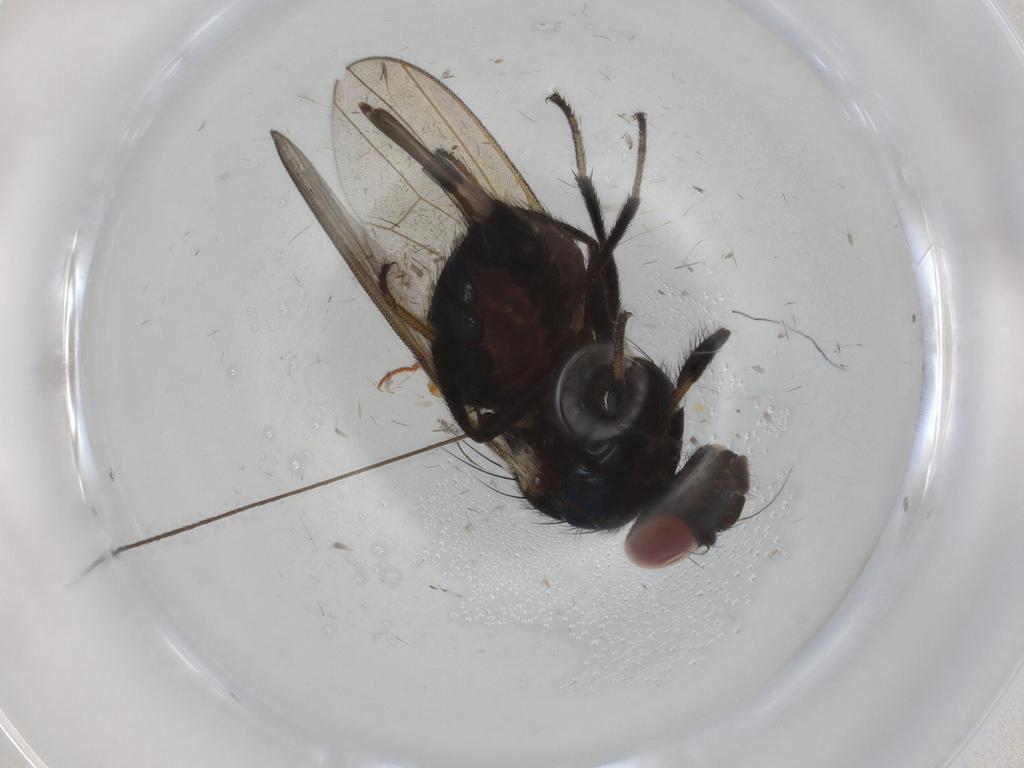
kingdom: Animalia
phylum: Arthropoda
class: Insecta
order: Diptera
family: Lonchaeidae
